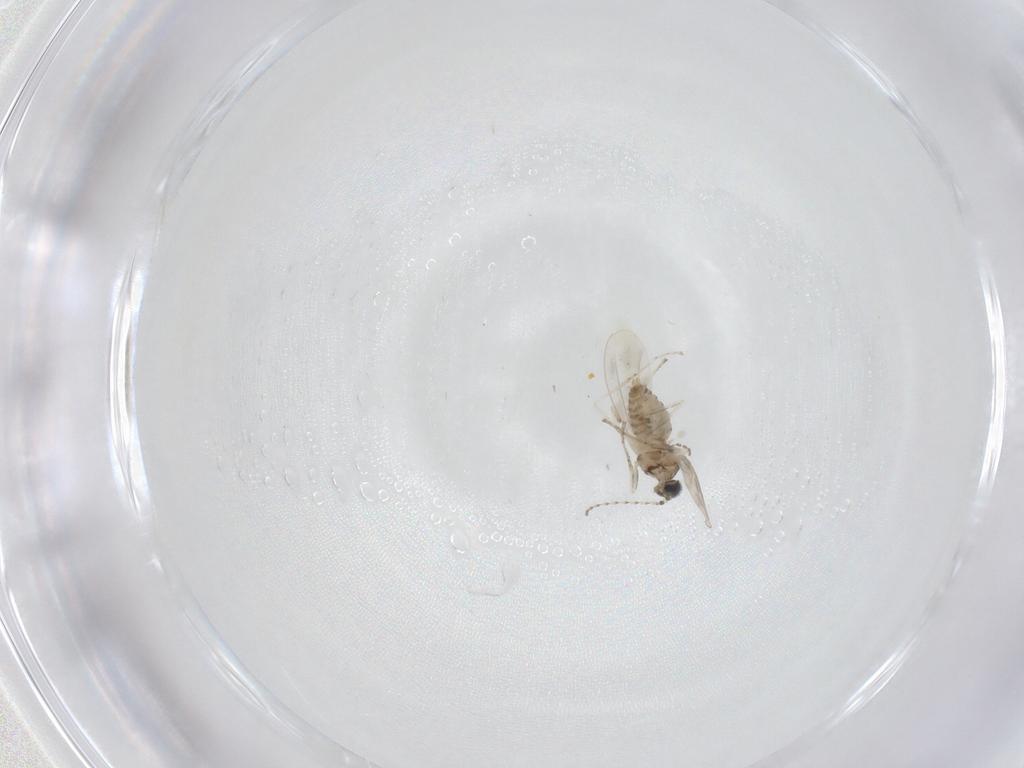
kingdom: Animalia
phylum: Arthropoda
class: Insecta
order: Diptera
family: Cecidomyiidae
